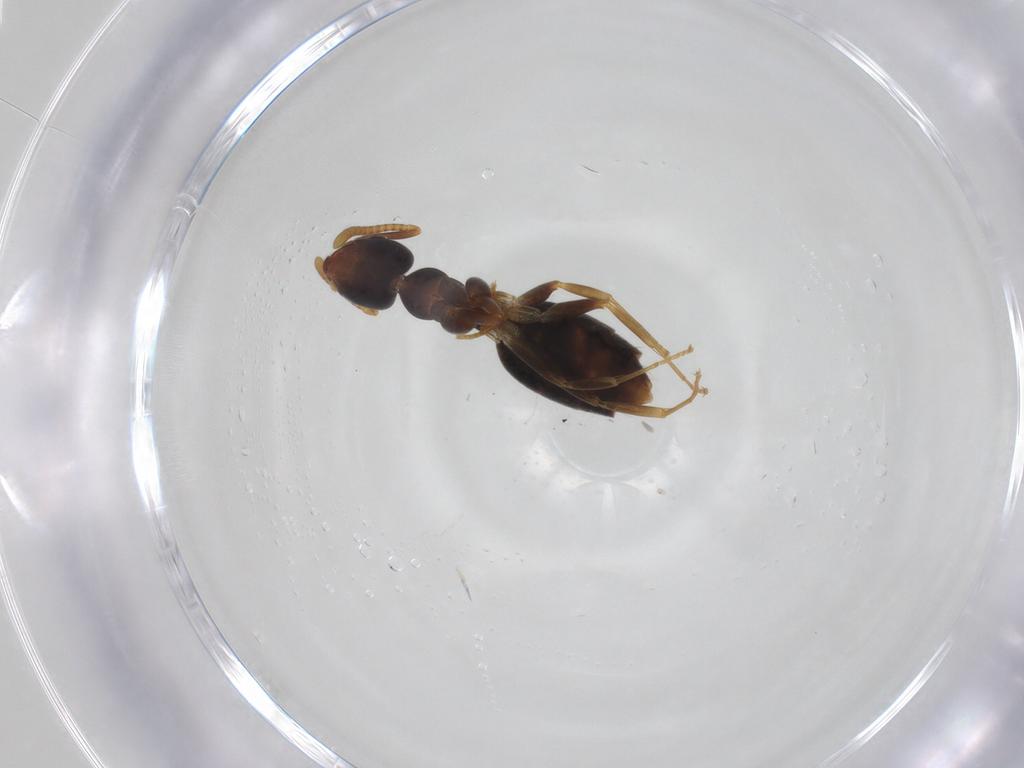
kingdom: Animalia
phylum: Arthropoda
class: Insecta
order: Hymenoptera
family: Formicidae
